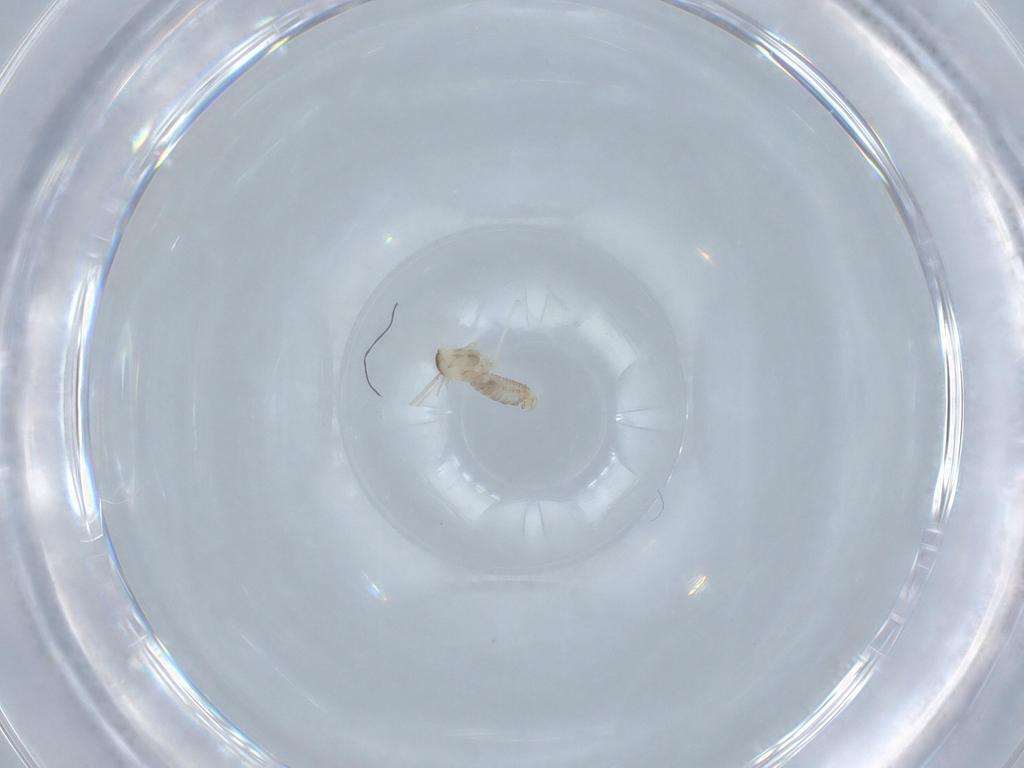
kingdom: Animalia
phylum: Arthropoda
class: Insecta
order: Diptera
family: Cecidomyiidae
